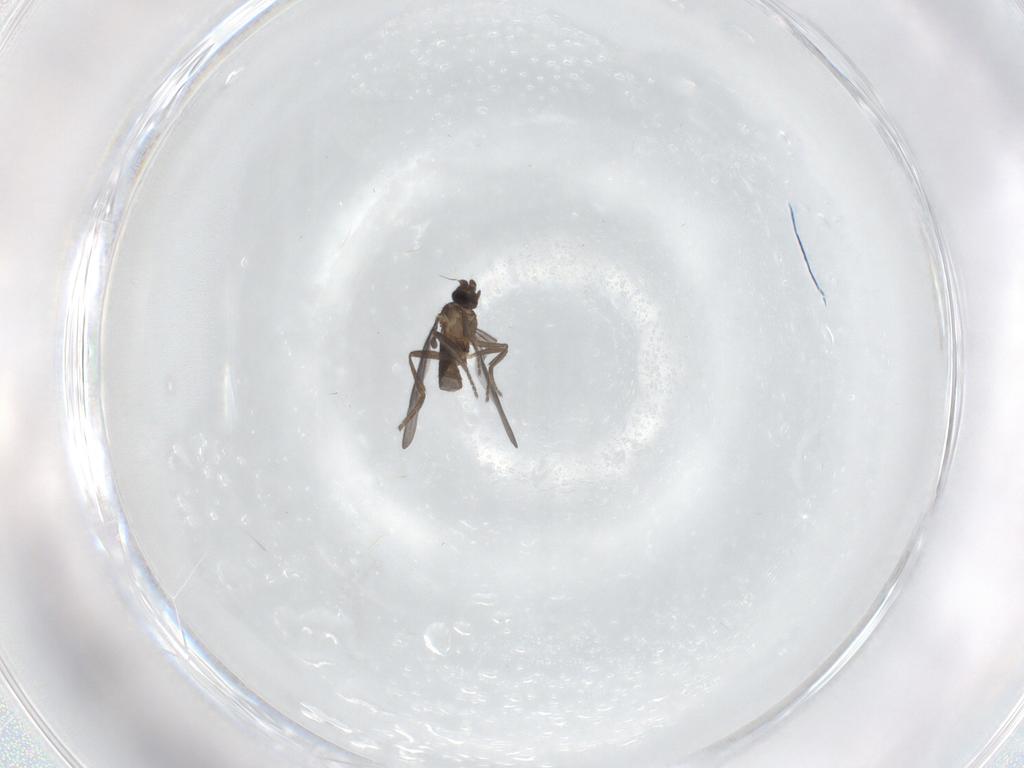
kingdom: Animalia
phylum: Arthropoda
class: Insecta
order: Diptera
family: Phoridae
